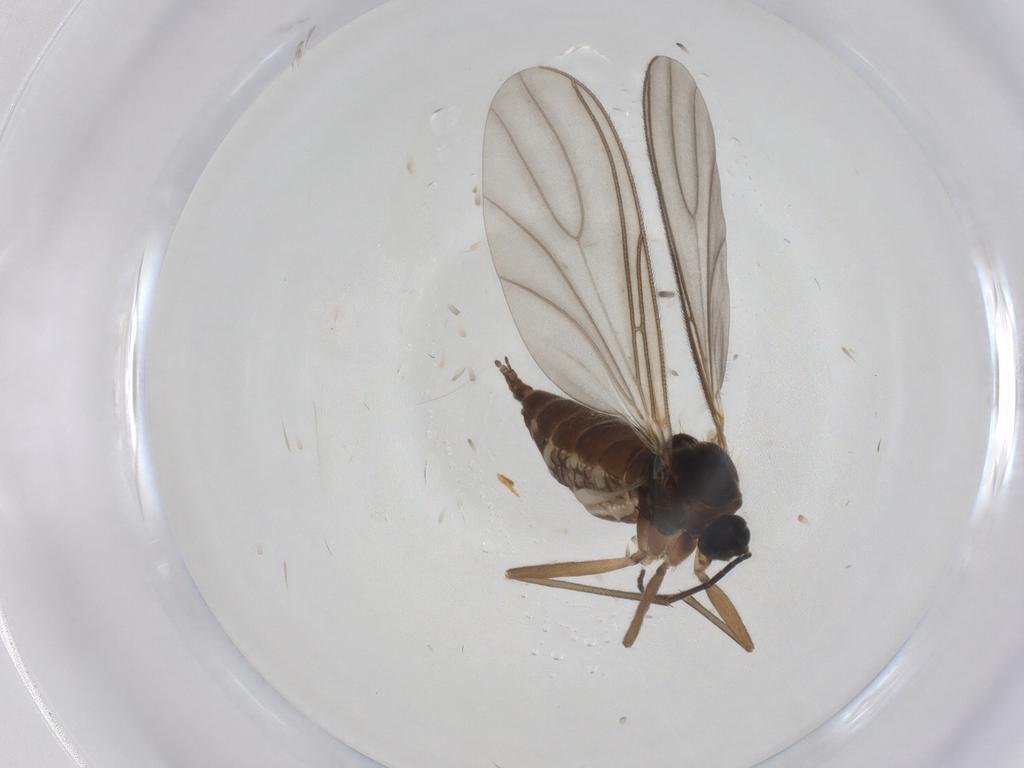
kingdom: Animalia
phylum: Arthropoda
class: Insecta
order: Diptera
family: Sciaridae
